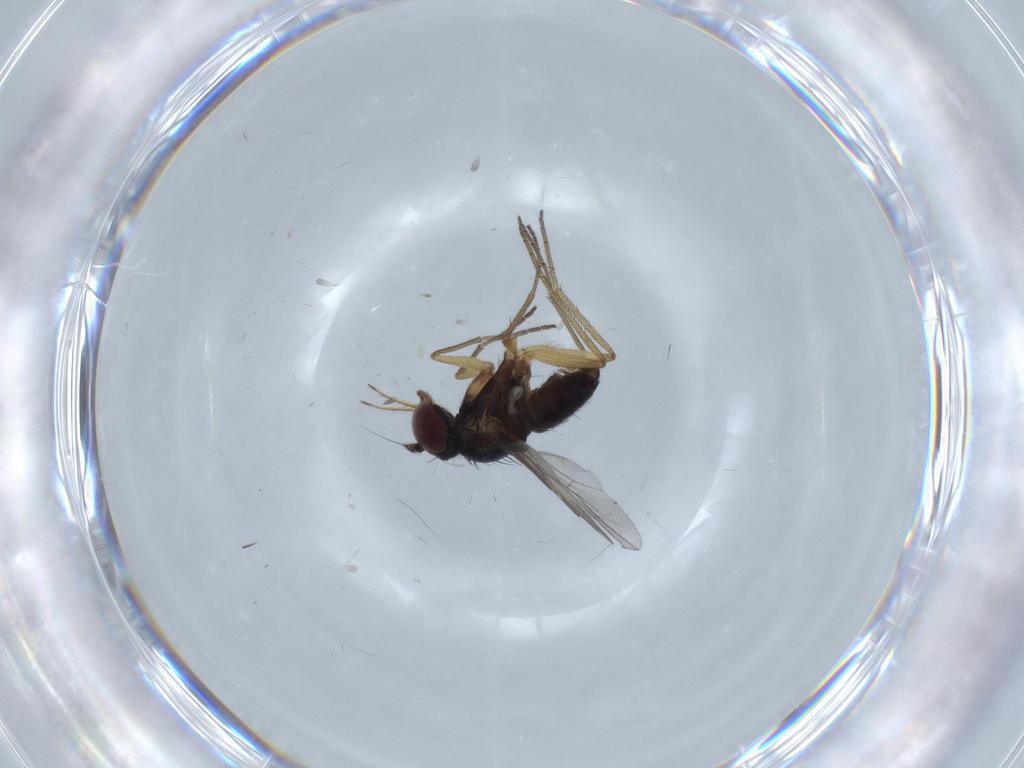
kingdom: Animalia
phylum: Arthropoda
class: Insecta
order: Diptera
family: Dolichopodidae
